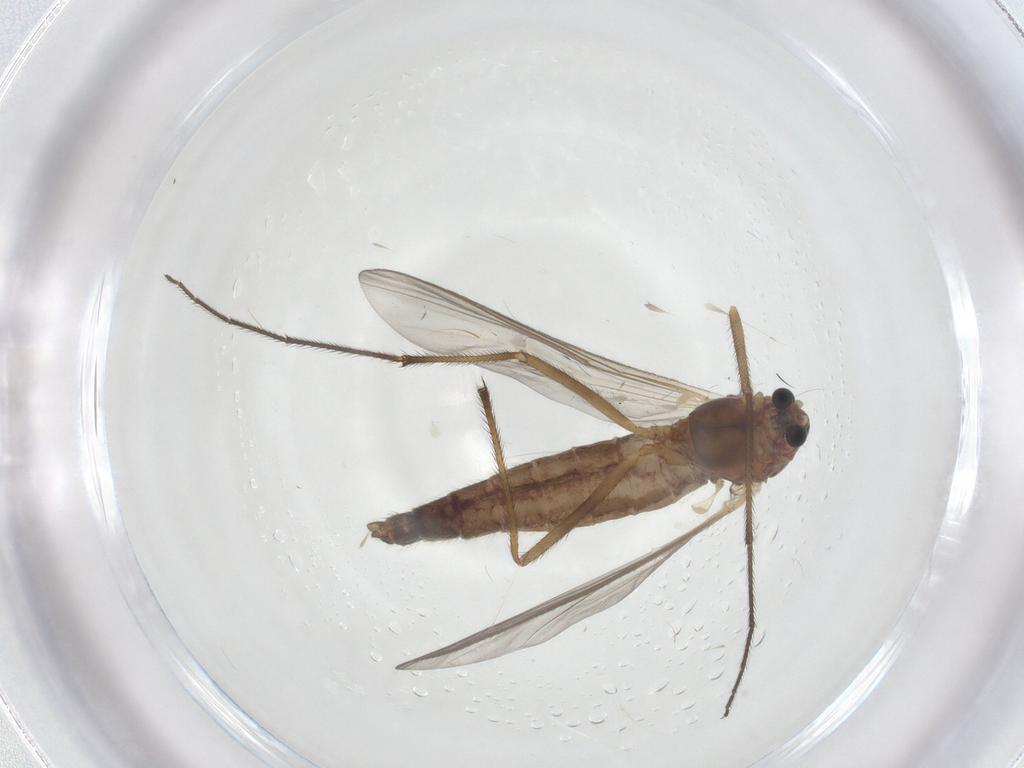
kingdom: Animalia
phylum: Arthropoda
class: Insecta
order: Diptera
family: Chironomidae
